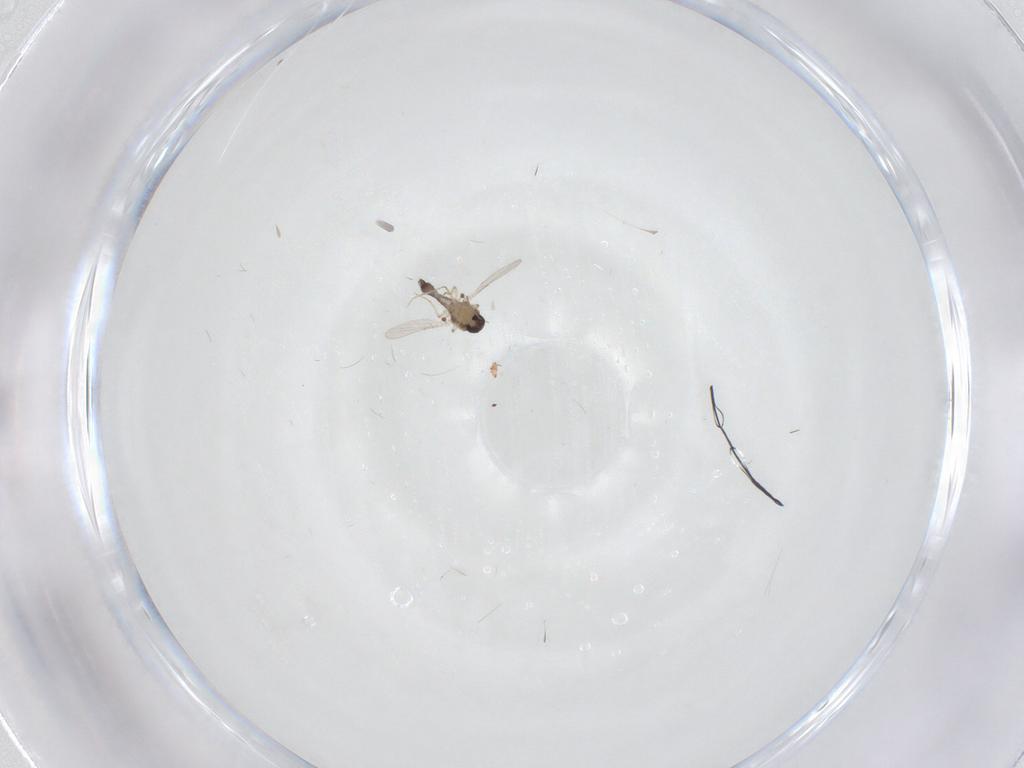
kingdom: Animalia
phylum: Arthropoda
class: Insecta
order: Diptera
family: Ceratopogonidae
